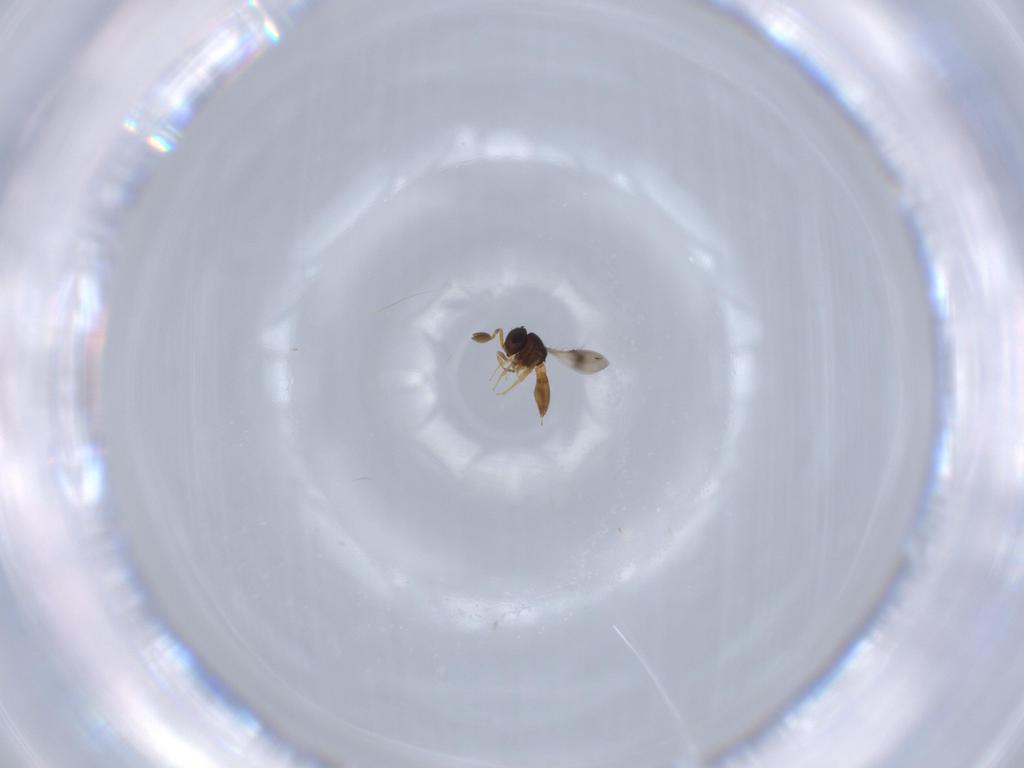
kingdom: Animalia
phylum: Arthropoda
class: Insecta
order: Hymenoptera
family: Scelionidae
